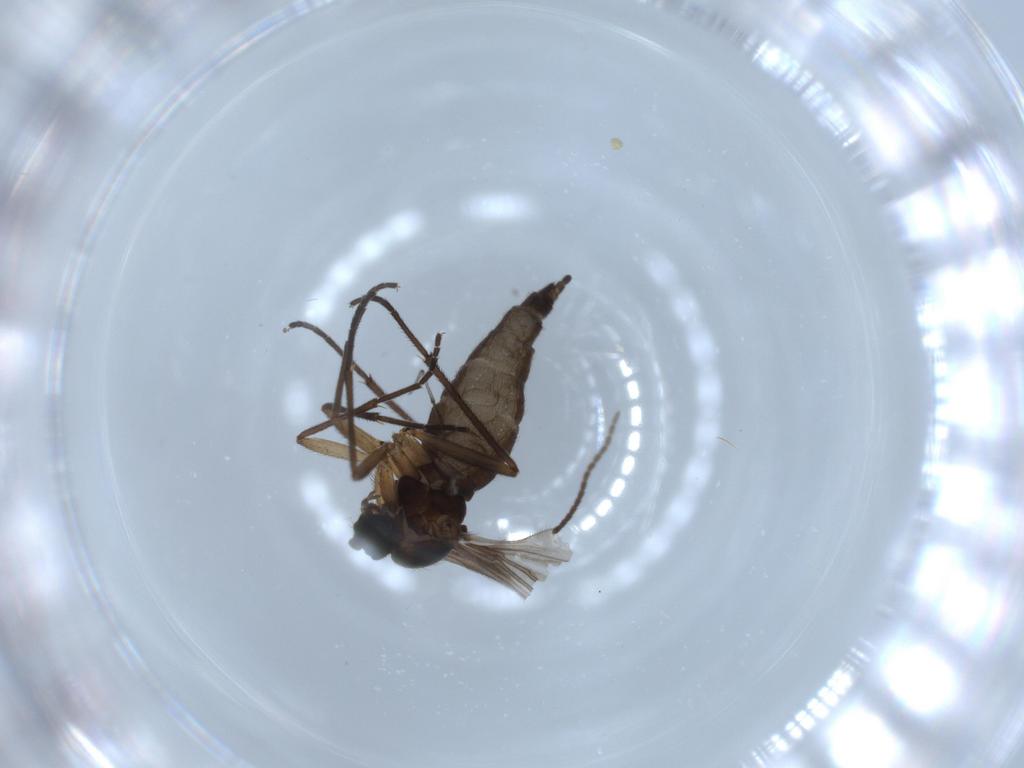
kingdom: Animalia
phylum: Arthropoda
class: Insecta
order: Diptera
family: Sciaridae
